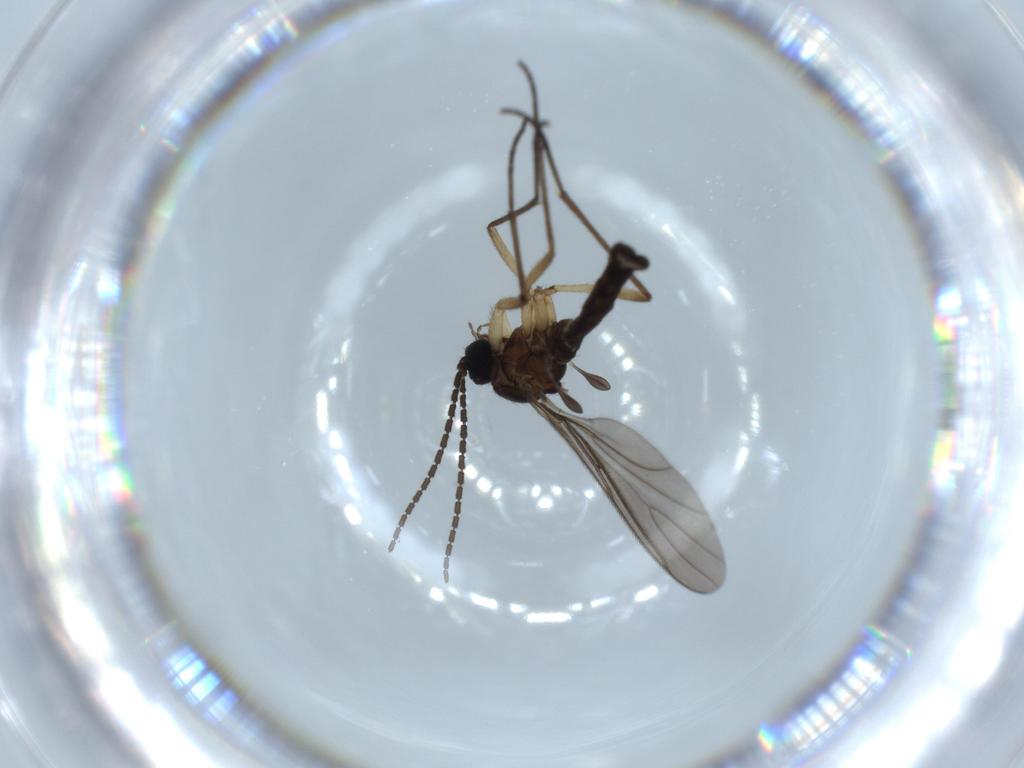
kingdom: Animalia
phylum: Arthropoda
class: Insecta
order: Diptera
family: Sciaridae
